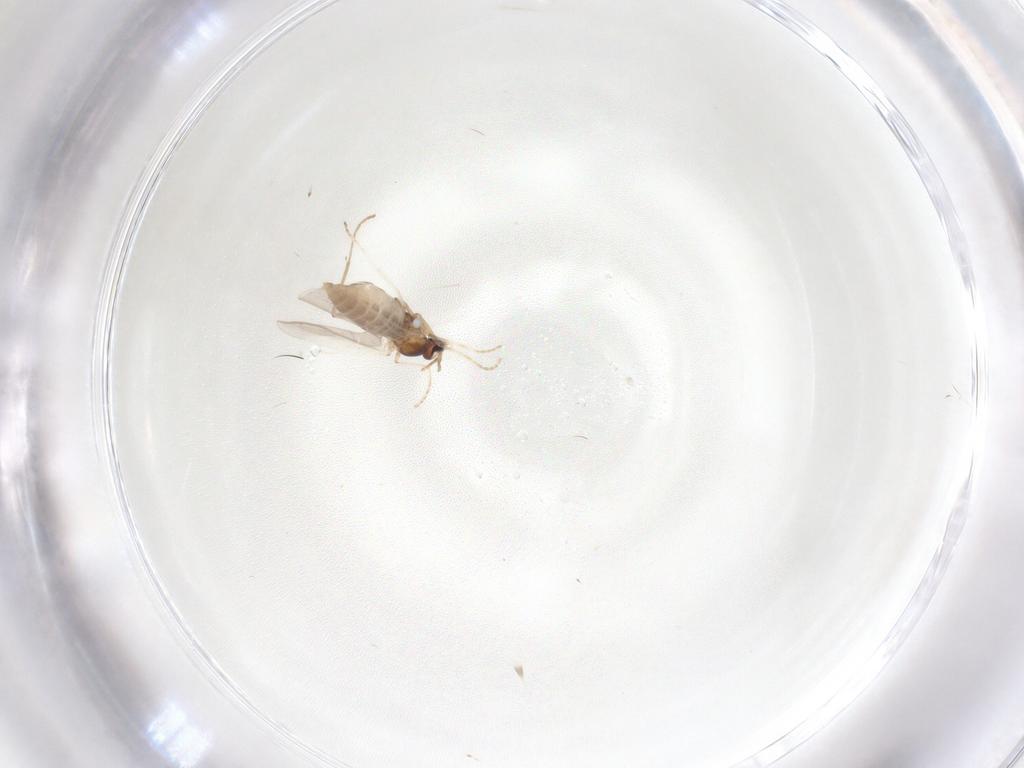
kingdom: Animalia
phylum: Arthropoda
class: Insecta
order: Diptera
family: Cecidomyiidae
